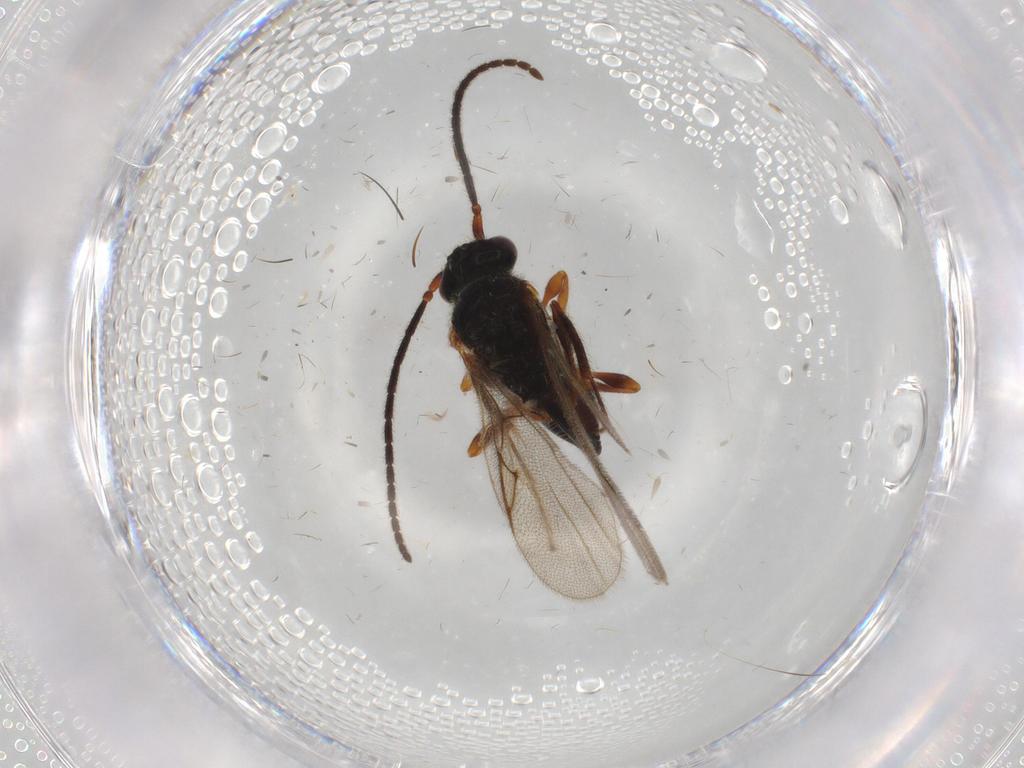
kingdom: Animalia
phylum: Arthropoda
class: Insecta
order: Hymenoptera
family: Diapriidae
